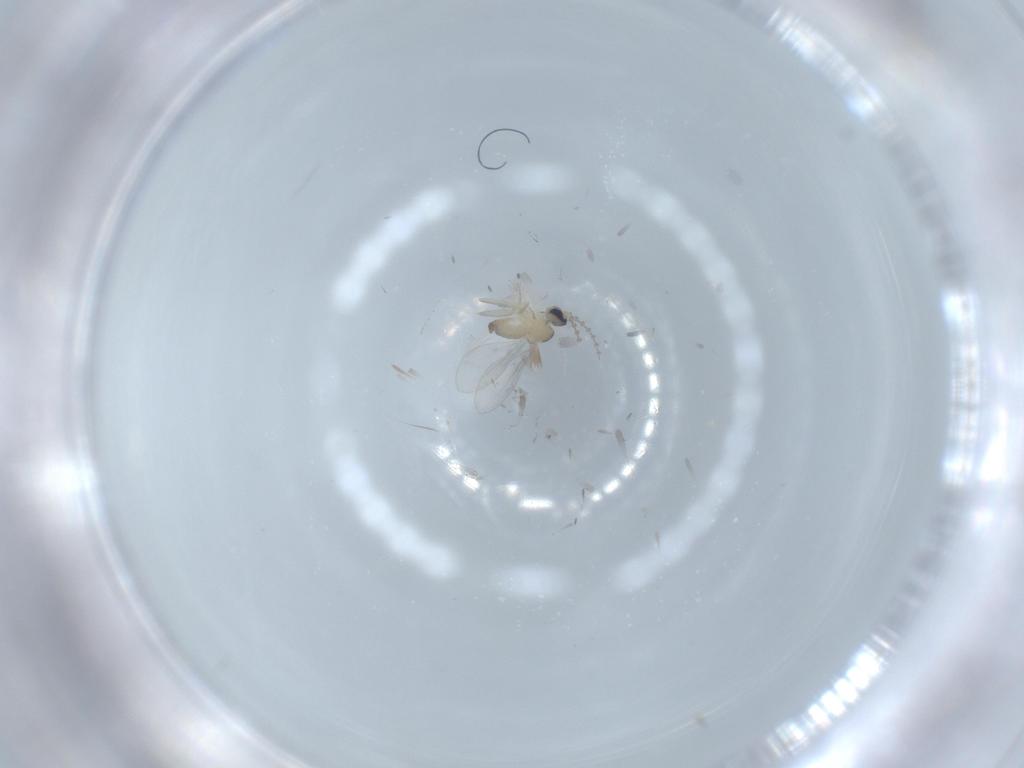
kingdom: Animalia
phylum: Arthropoda
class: Insecta
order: Diptera
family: Cecidomyiidae
